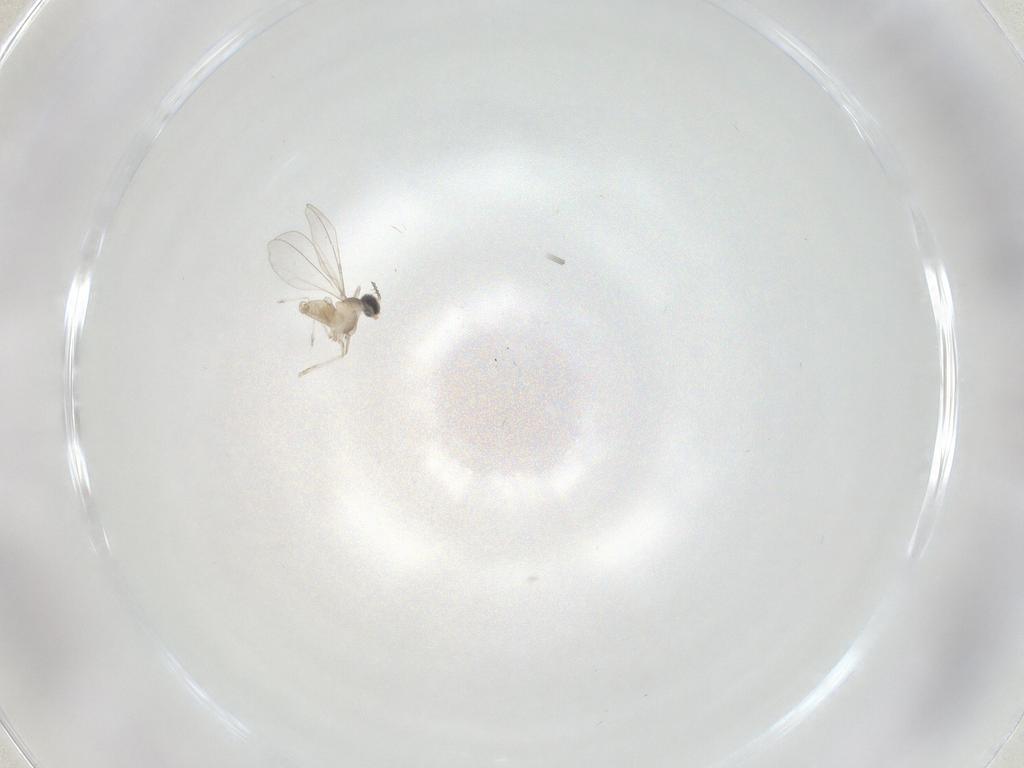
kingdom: Animalia
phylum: Arthropoda
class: Insecta
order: Diptera
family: Cecidomyiidae
